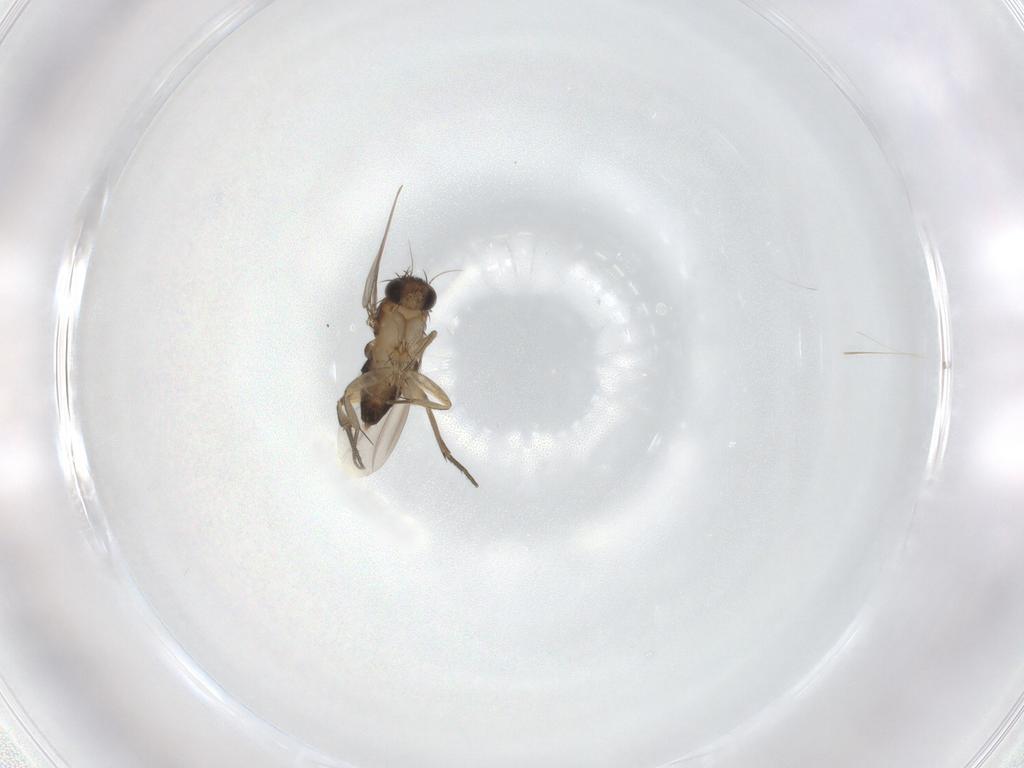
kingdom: Animalia
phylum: Arthropoda
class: Insecta
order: Diptera
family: Phoridae
